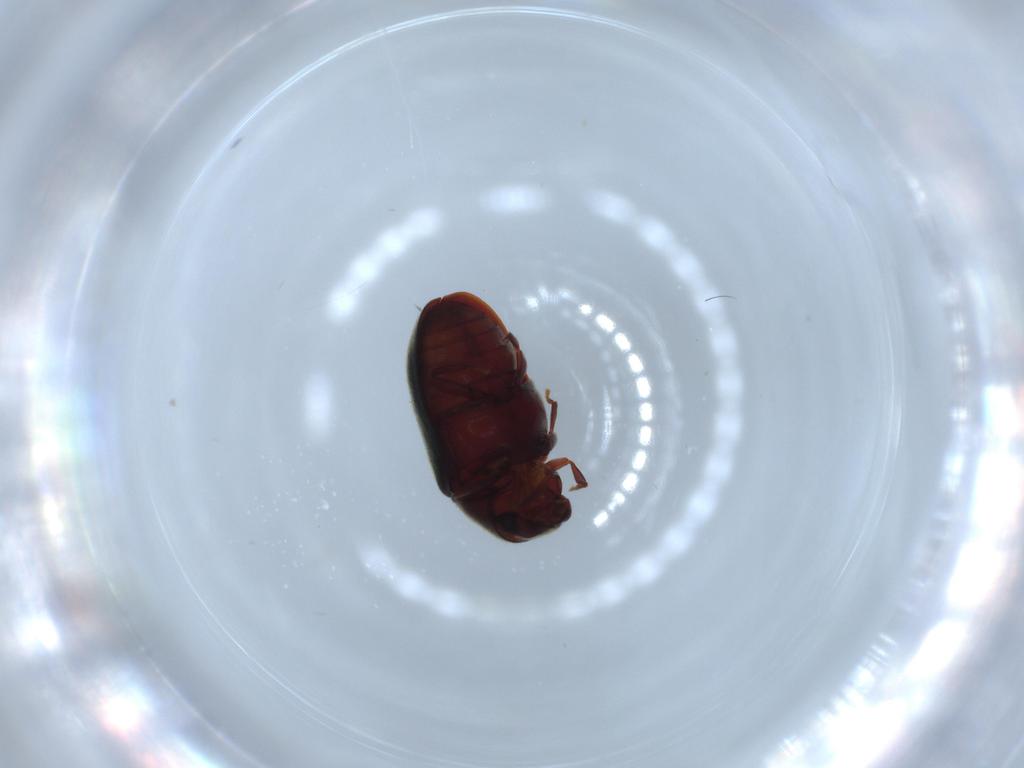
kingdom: Animalia
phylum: Arthropoda
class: Insecta
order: Coleoptera
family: Ptinidae
